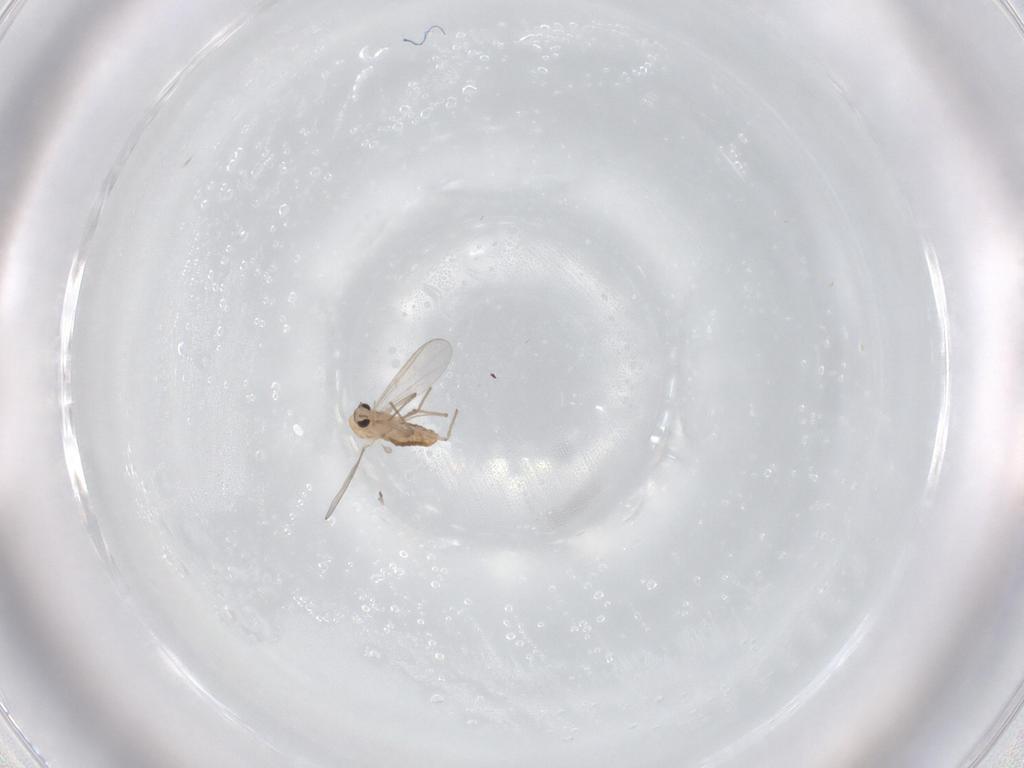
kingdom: Animalia
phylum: Arthropoda
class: Insecta
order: Diptera
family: Chironomidae
